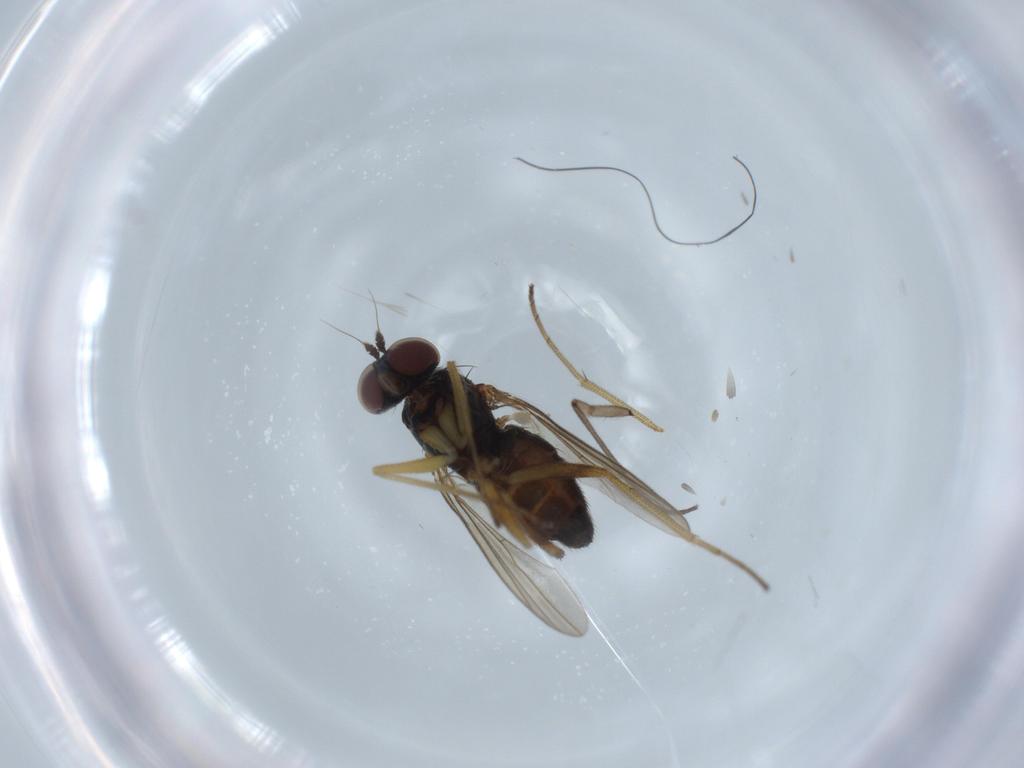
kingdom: Animalia
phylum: Arthropoda
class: Insecta
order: Diptera
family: Dolichopodidae
